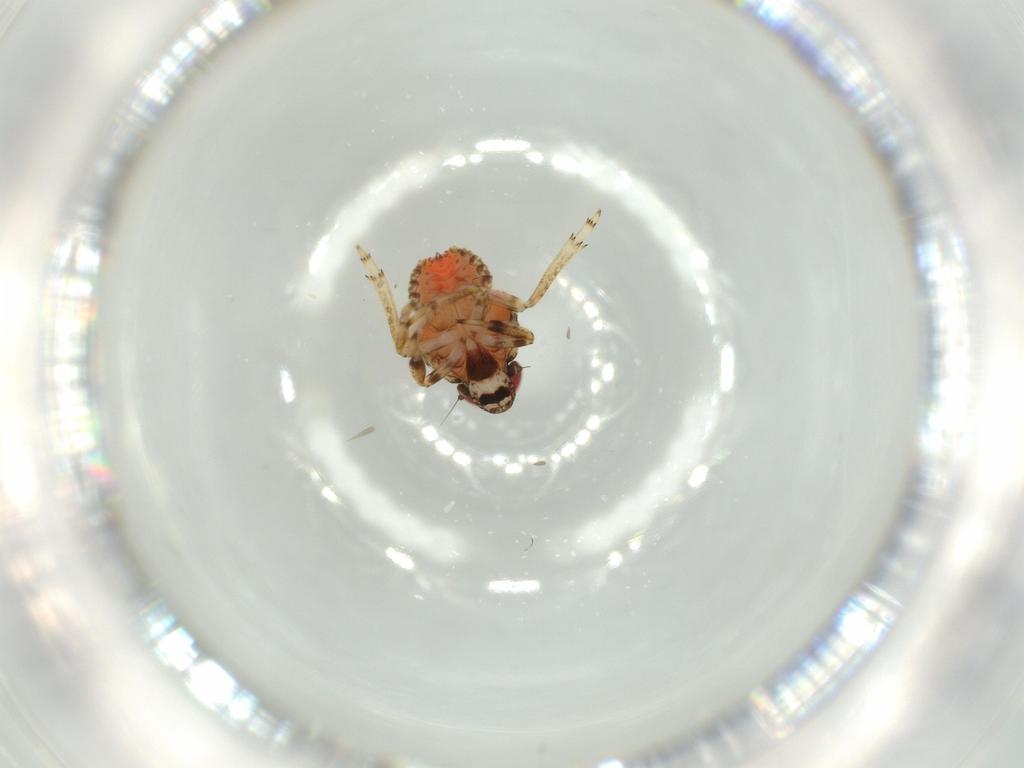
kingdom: Animalia
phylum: Arthropoda
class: Insecta
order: Hemiptera
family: Issidae
